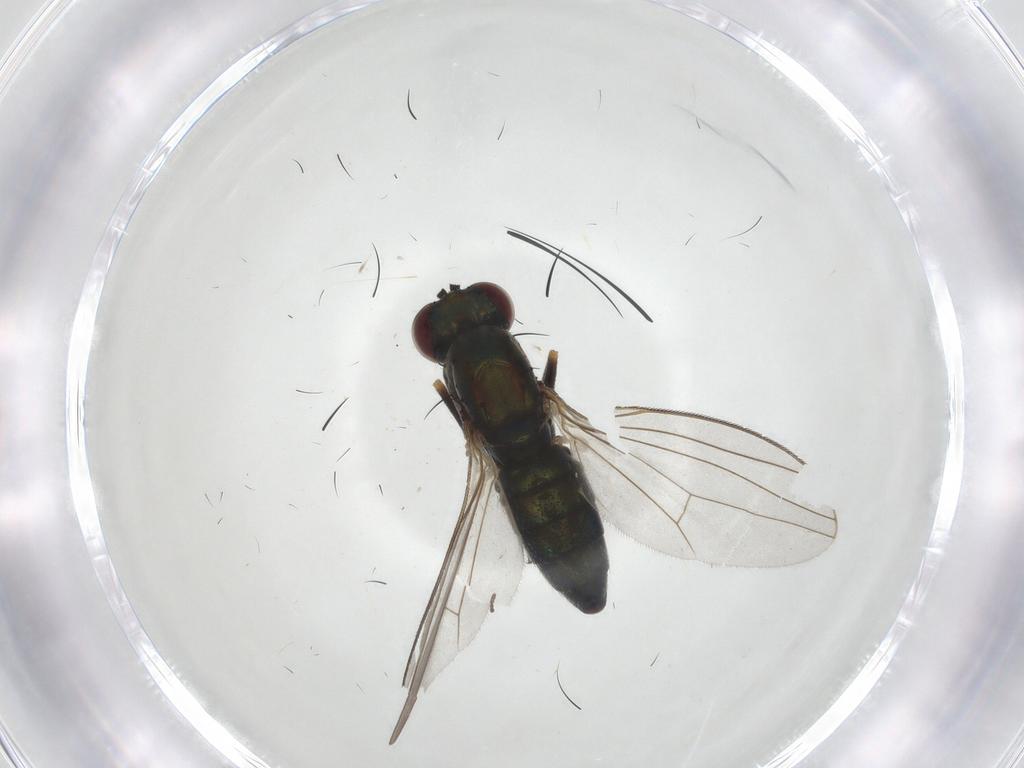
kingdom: Animalia
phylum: Arthropoda
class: Insecta
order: Diptera
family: Dolichopodidae
